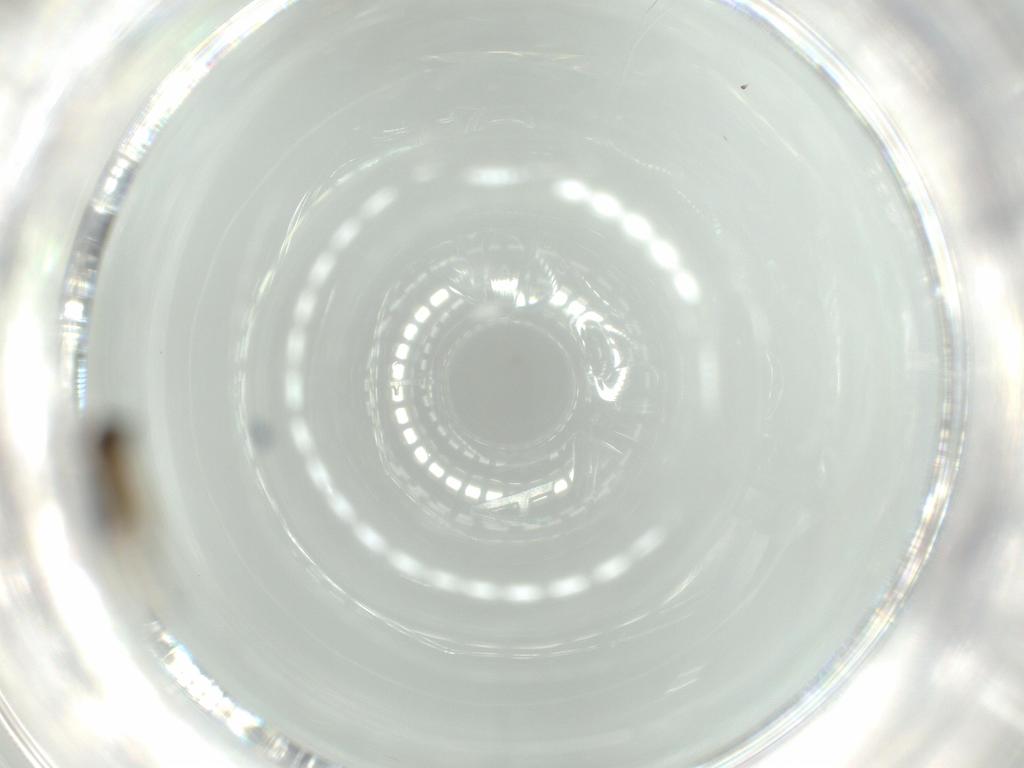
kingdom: Animalia
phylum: Arthropoda
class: Insecta
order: Diptera
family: Phoridae
